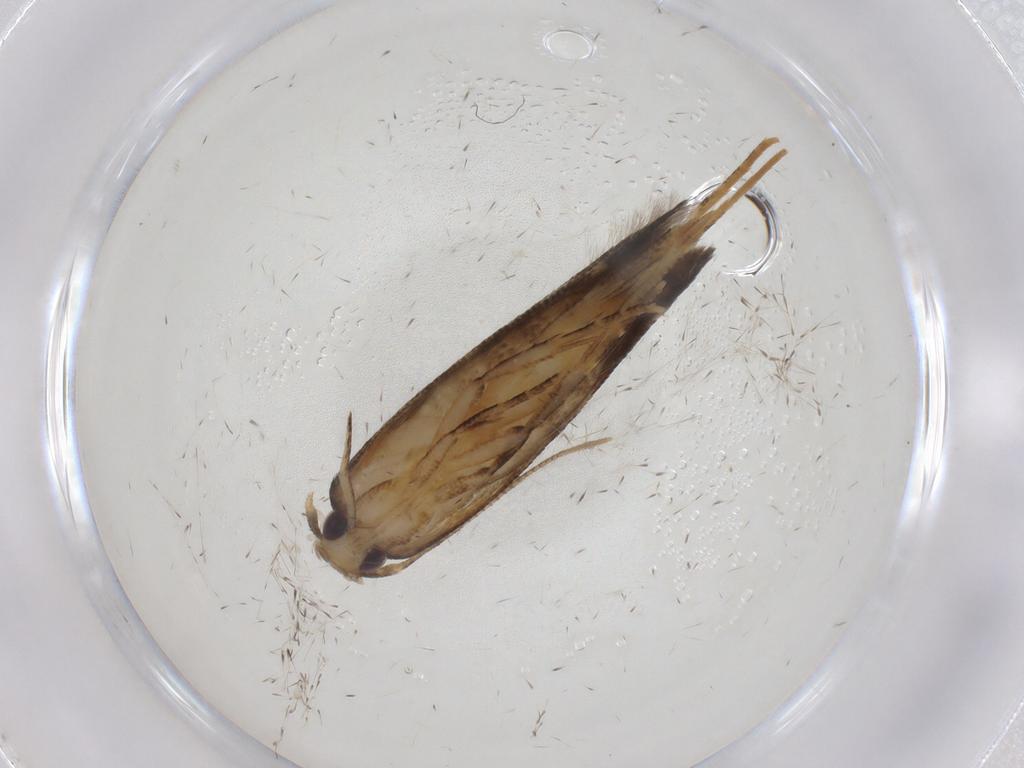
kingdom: Animalia
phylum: Arthropoda
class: Insecta
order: Lepidoptera
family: Cosmopterigidae
